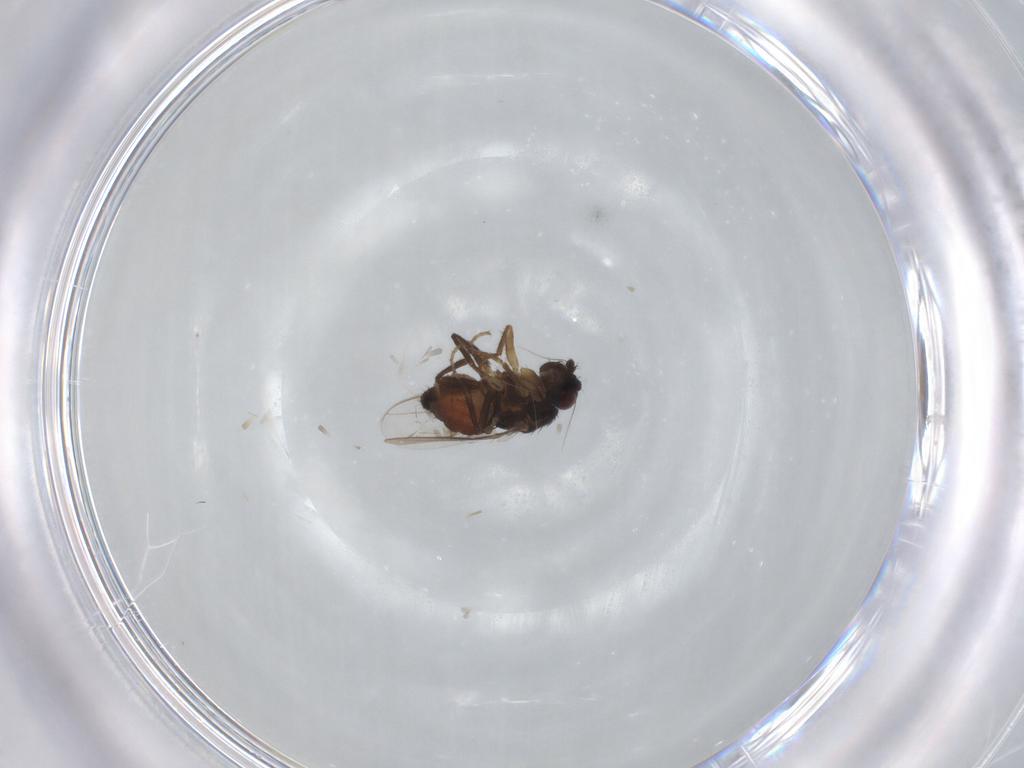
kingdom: Animalia
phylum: Arthropoda
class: Insecta
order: Diptera
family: Sphaeroceridae
